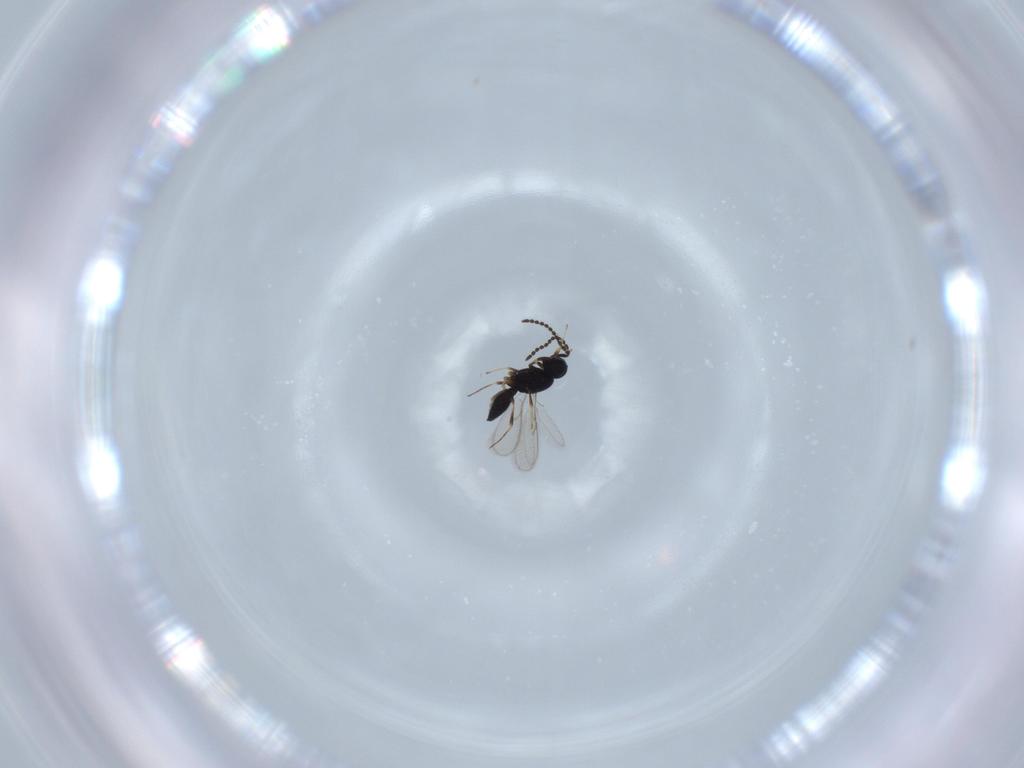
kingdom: Animalia
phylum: Arthropoda
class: Insecta
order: Hymenoptera
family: Scelionidae
